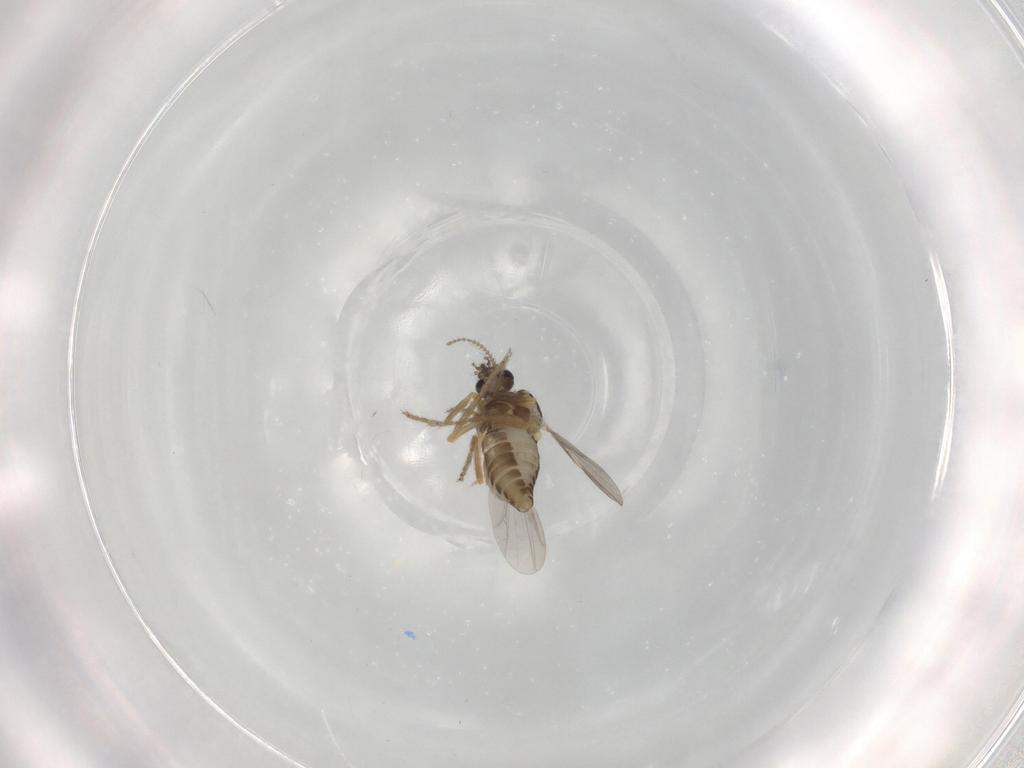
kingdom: Animalia
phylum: Arthropoda
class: Insecta
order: Diptera
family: Ceratopogonidae
